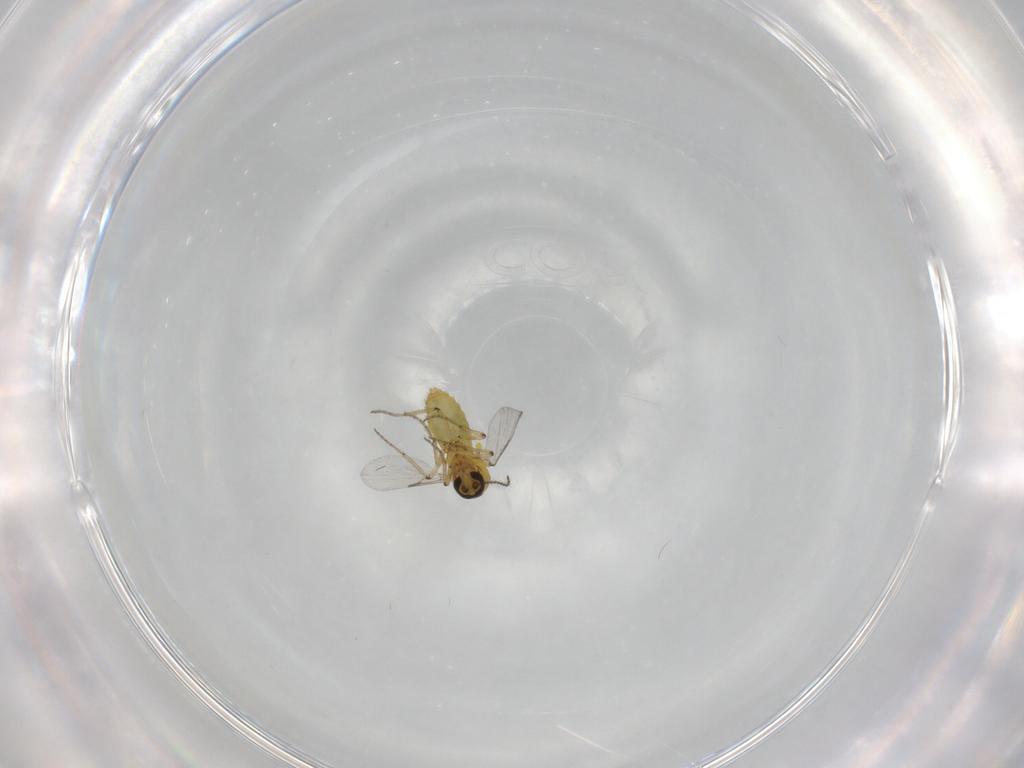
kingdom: Animalia
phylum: Arthropoda
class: Insecta
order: Diptera
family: Ceratopogonidae
